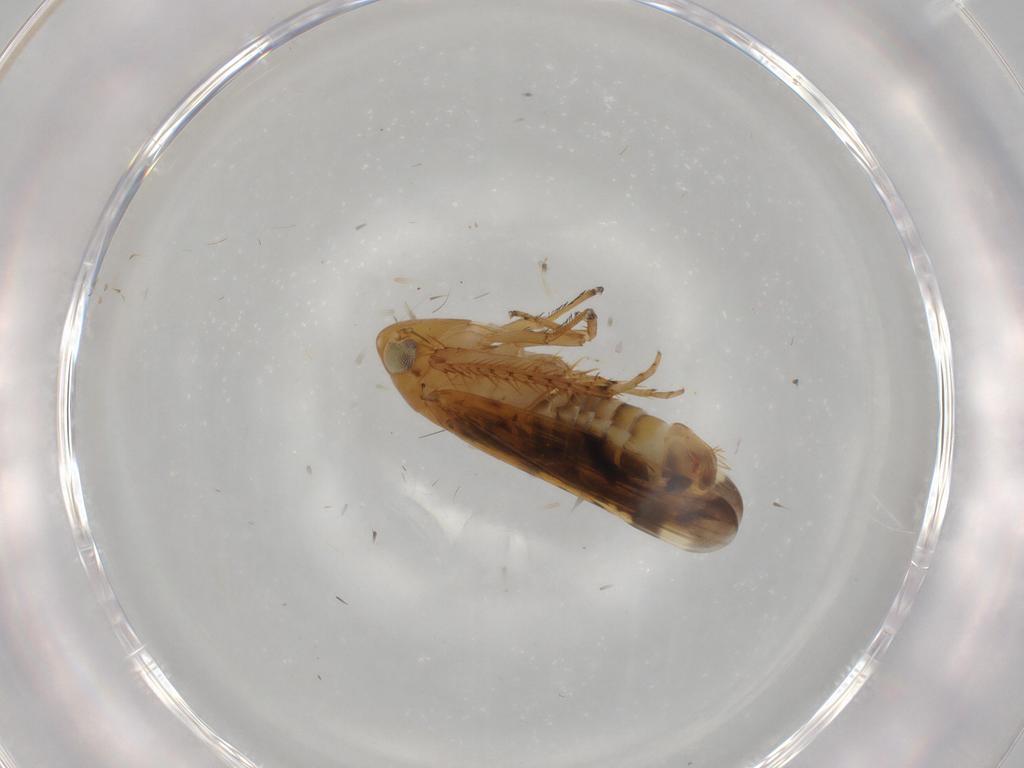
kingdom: Animalia
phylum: Arthropoda
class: Insecta
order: Hemiptera
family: Cicadellidae
